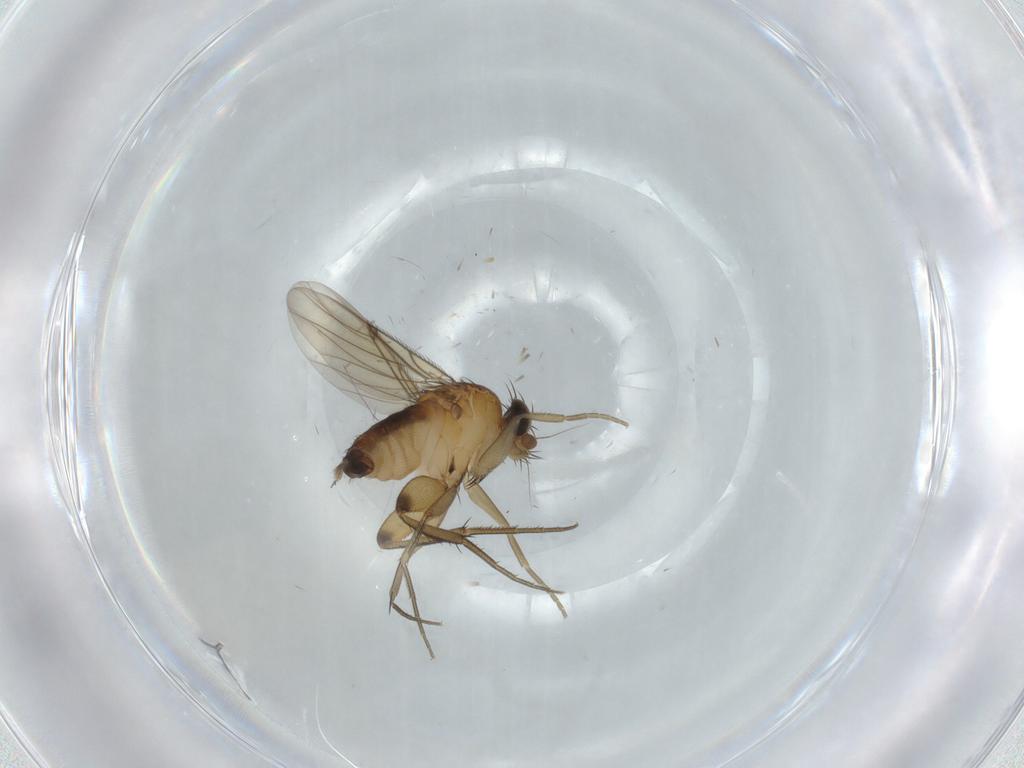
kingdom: Animalia
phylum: Arthropoda
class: Insecta
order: Diptera
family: Phoridae
